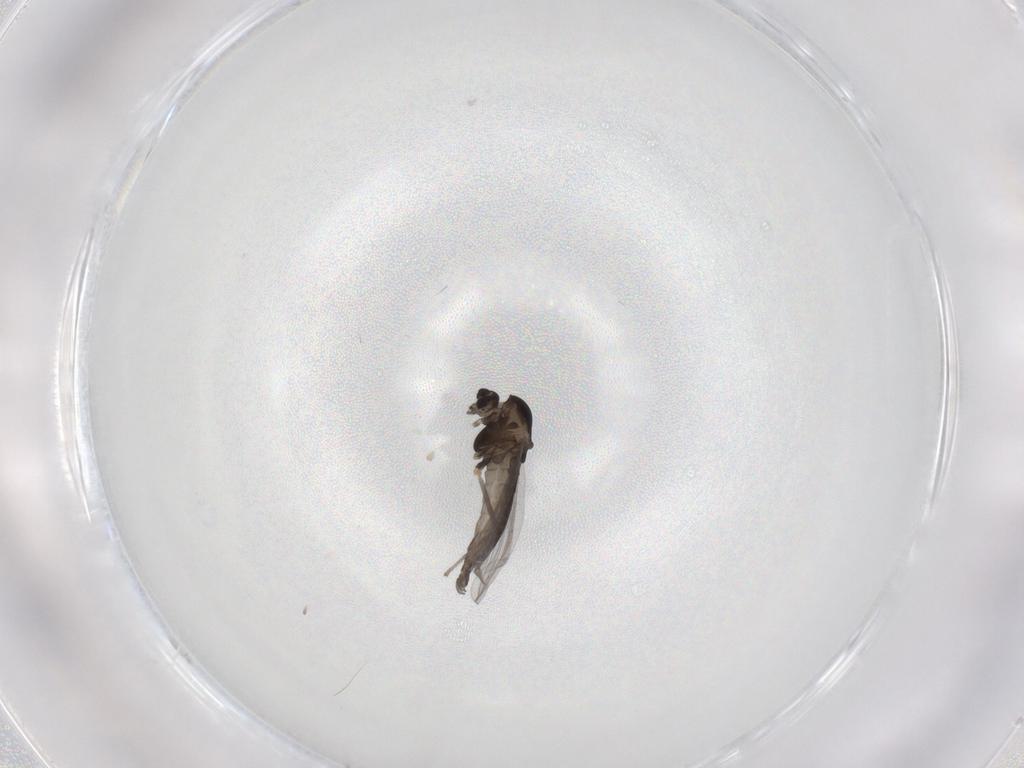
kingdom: Animalia
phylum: Arthropoda
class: Insecta
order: Diptera
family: Chironomidae
